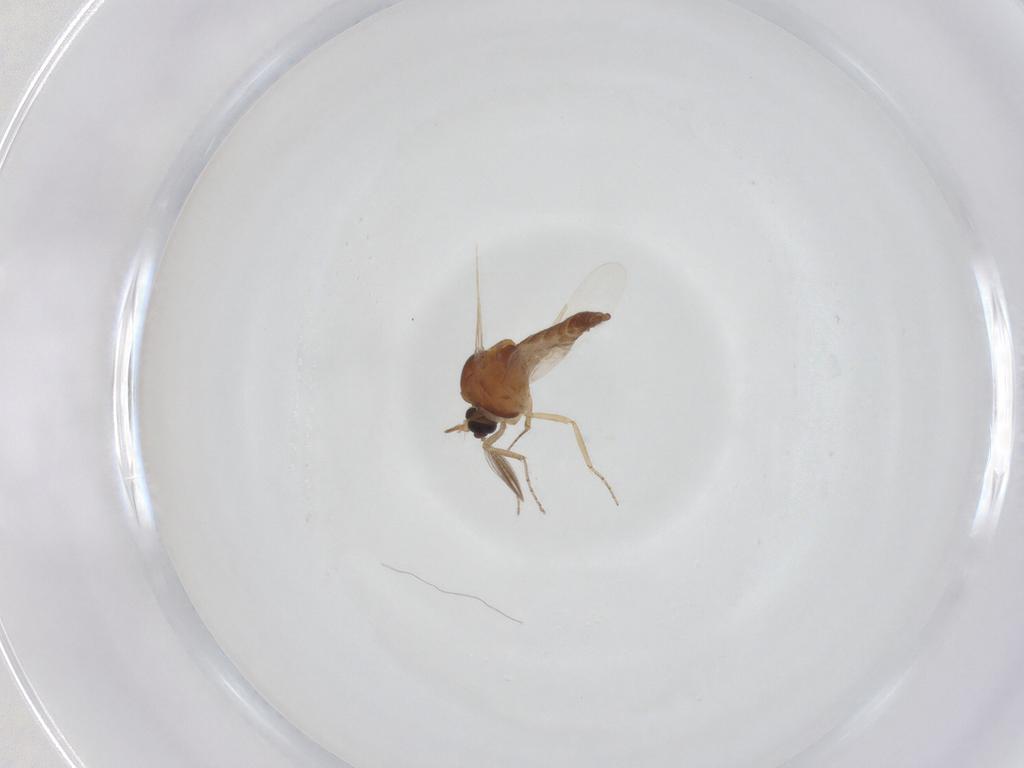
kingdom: Animalia
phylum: Arthropoda
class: Insecta
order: Diptera
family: Ceratopogonidae
